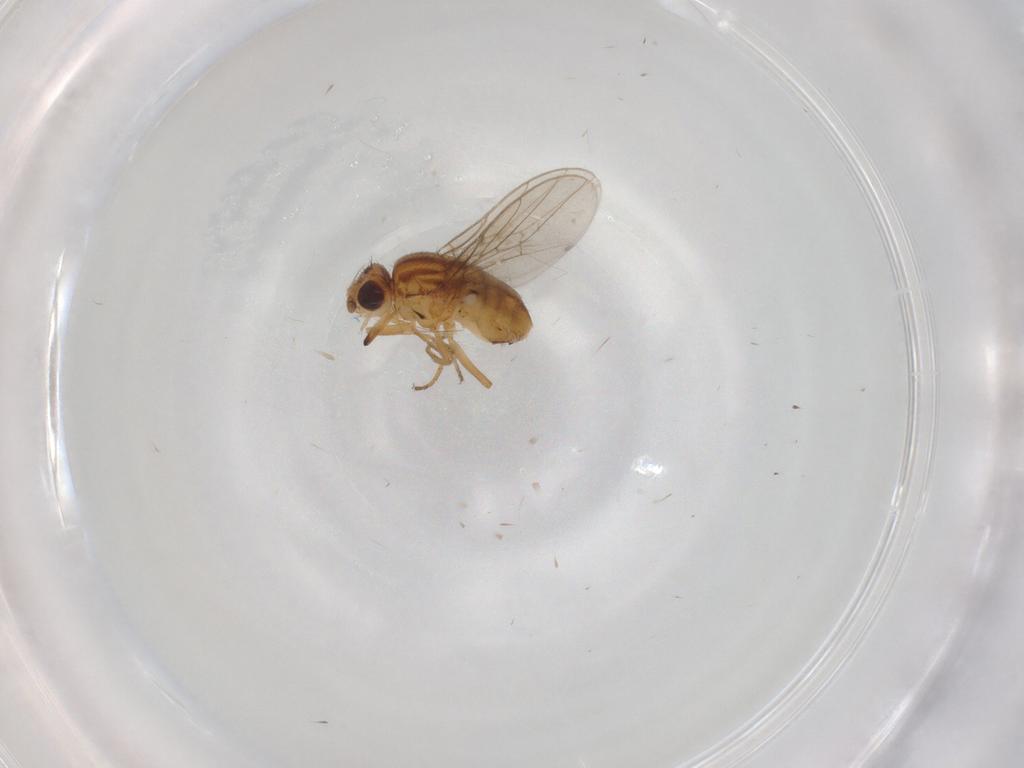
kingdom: Animalia
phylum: Arthropoda
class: Insecta
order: Diptera
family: Chloropidae
